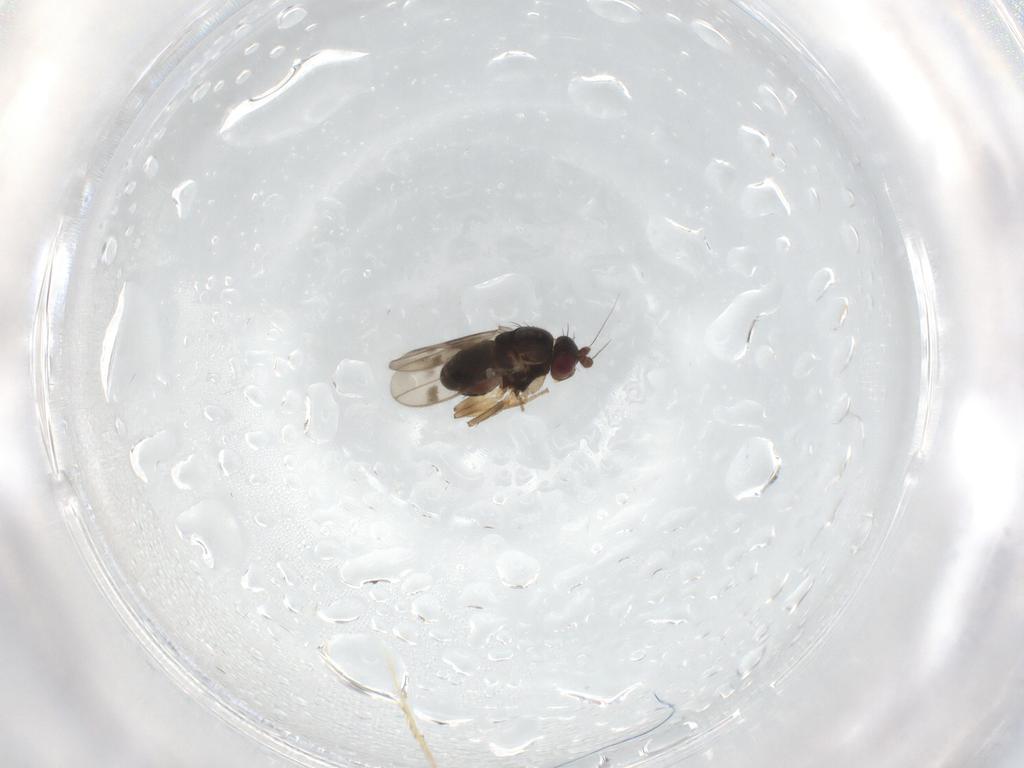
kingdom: Animalia
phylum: Arthropoda
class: Insecta
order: Diptera
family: Sphaeroceridae
